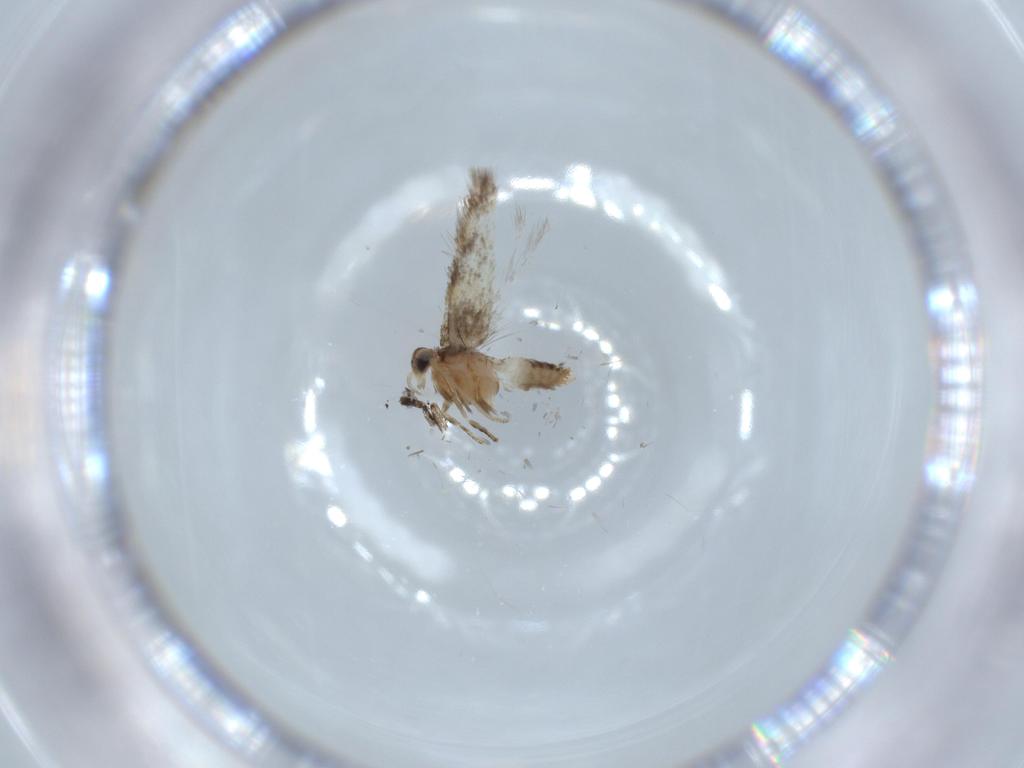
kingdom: Animalia
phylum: Arthropoda
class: Insecta
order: Lepidoptera
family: Nepticulidae
